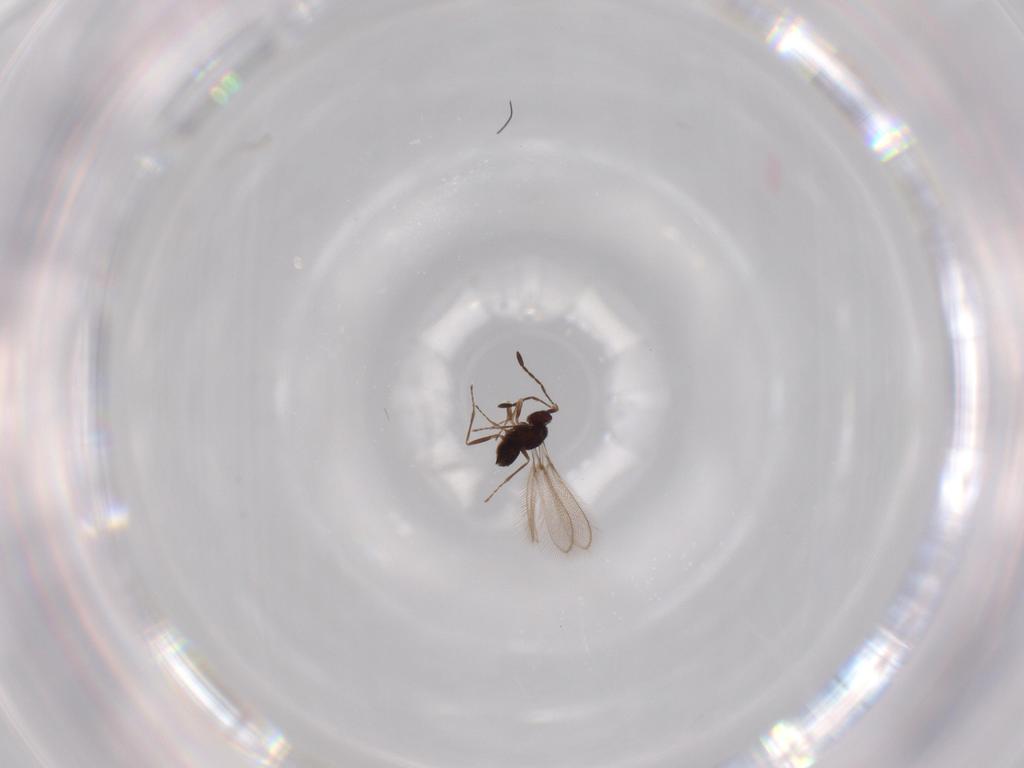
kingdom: Animalia
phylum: Arthropoda
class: Insecta
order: Hymenoptera
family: Mymaridae
